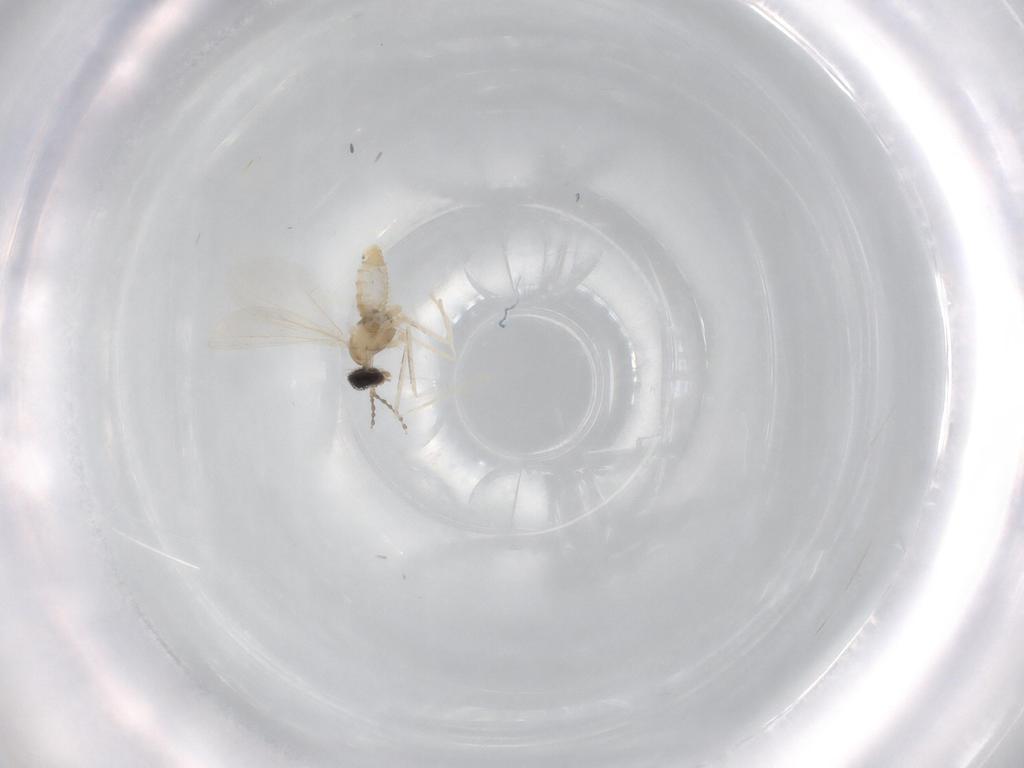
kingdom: Animalia
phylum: Arthropoda
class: Insecta
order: Diptera
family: Cecidomyiidae
